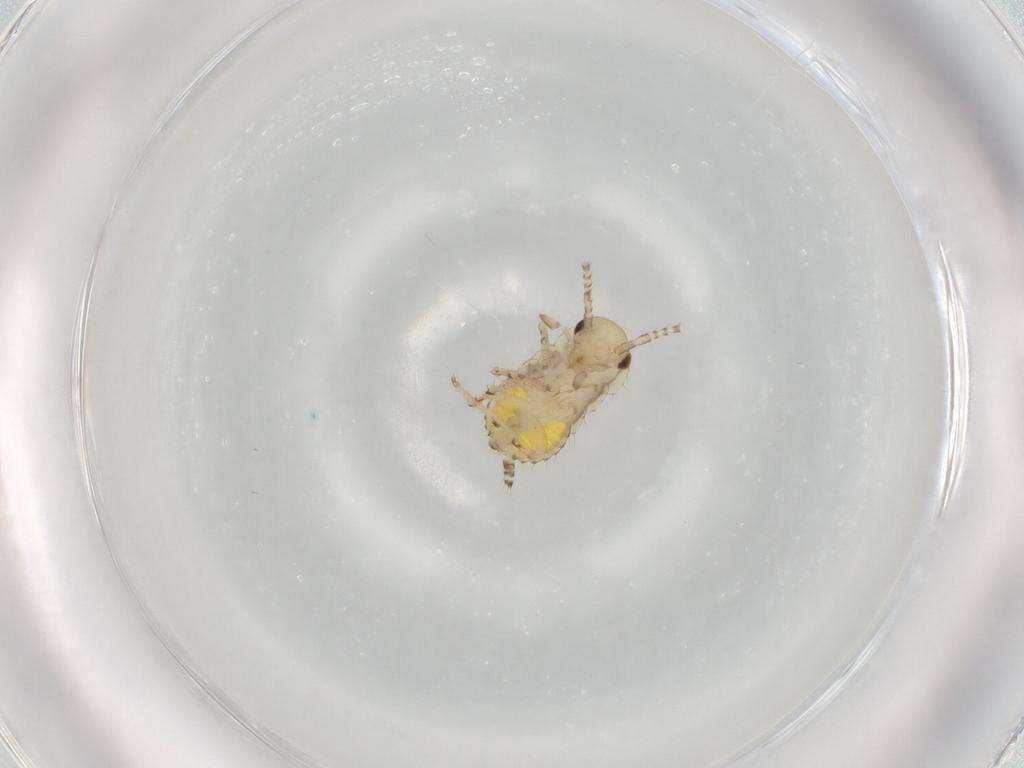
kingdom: Animalia
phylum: Arthropoda
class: Insecta
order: Blattodea
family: Ectobiidae
